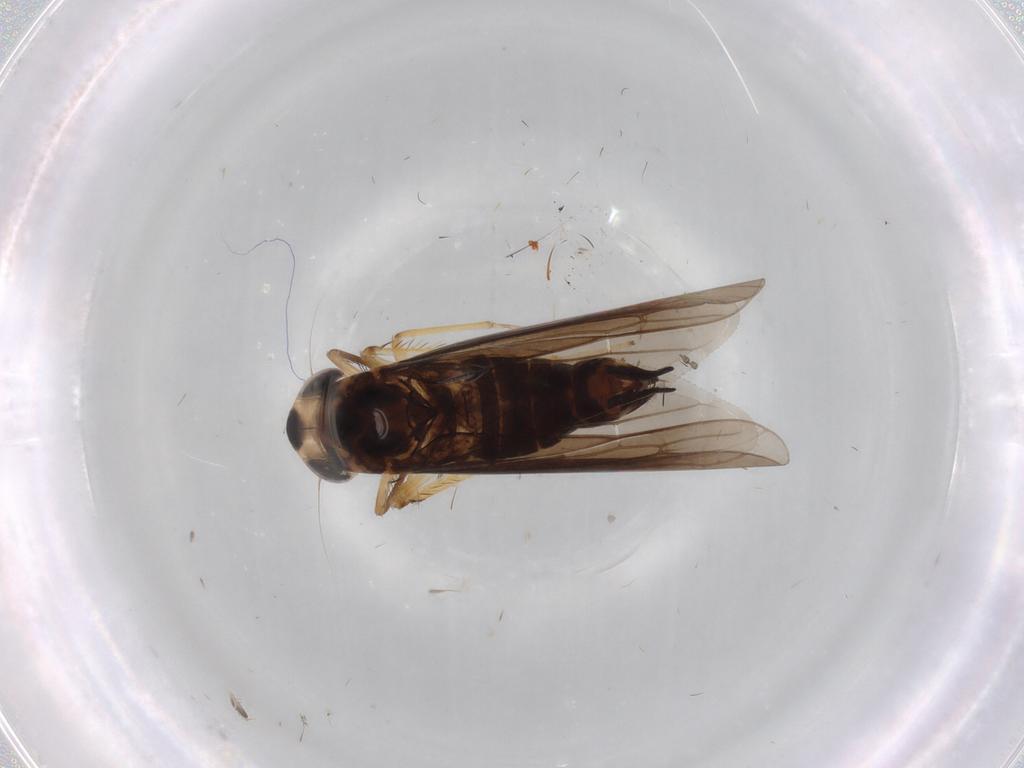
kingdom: Animalia
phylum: Arthropoda
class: Insecta
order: Hemiptera
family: Cicadellidae
